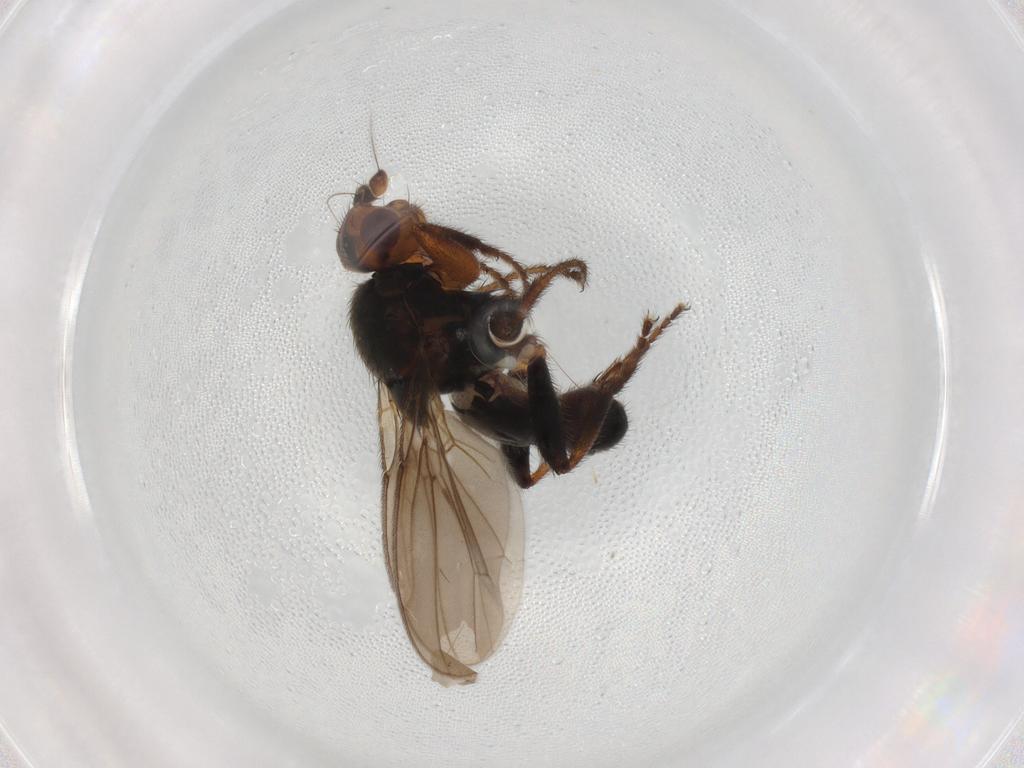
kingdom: Animalia
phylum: Arthropoda
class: Insecta
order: Diptera
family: Sphaeroceridae
